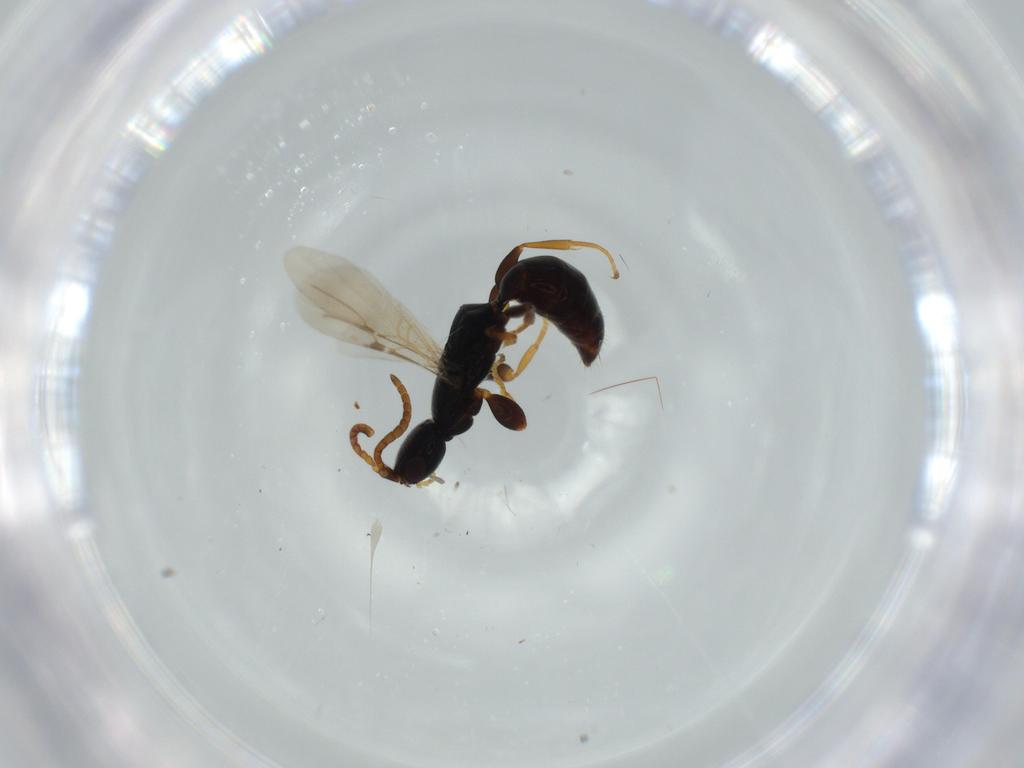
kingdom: Animalia
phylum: Arthropoda
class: Insecta
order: Hymenoptera
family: Bethylidae
